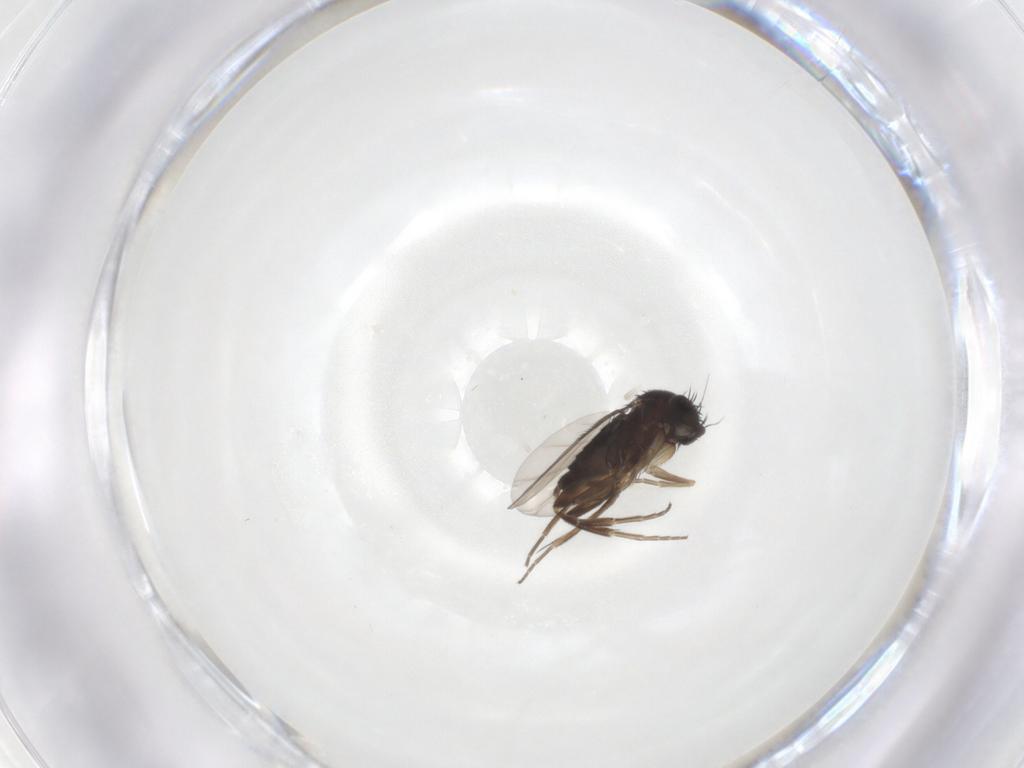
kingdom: Animalia
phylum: Arthropoda
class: Insecta
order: Diptera
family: Phoridae
